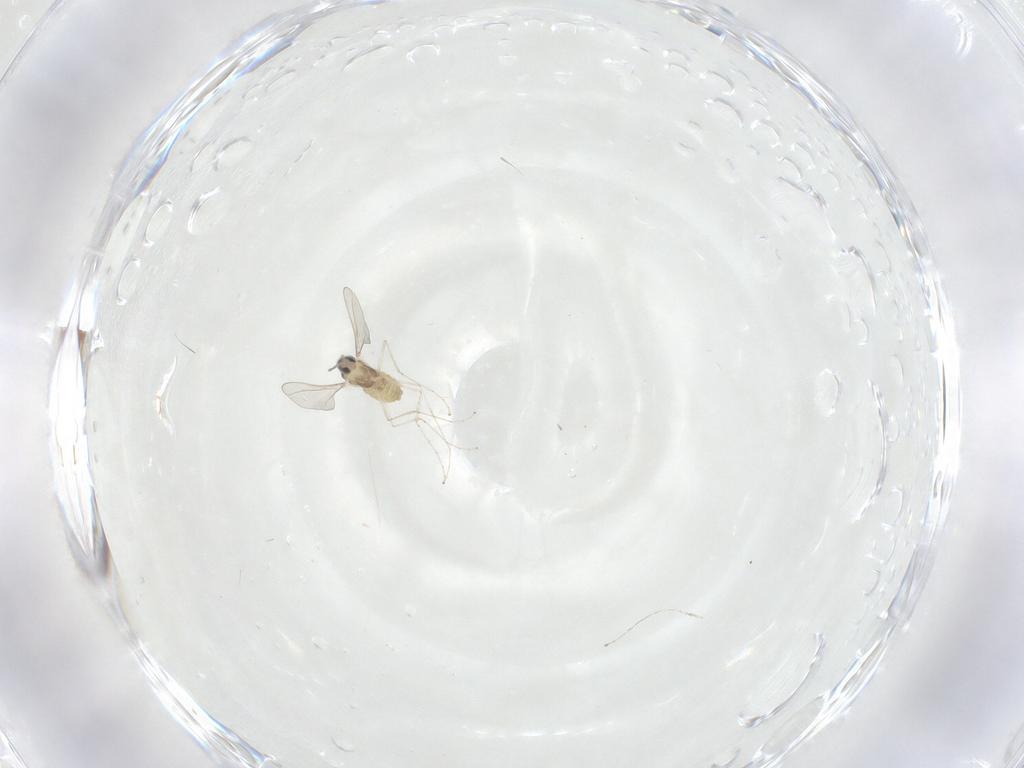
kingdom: Animalia
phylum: Arthropoda
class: Insecta
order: Diptera
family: Cecidomyiidae
